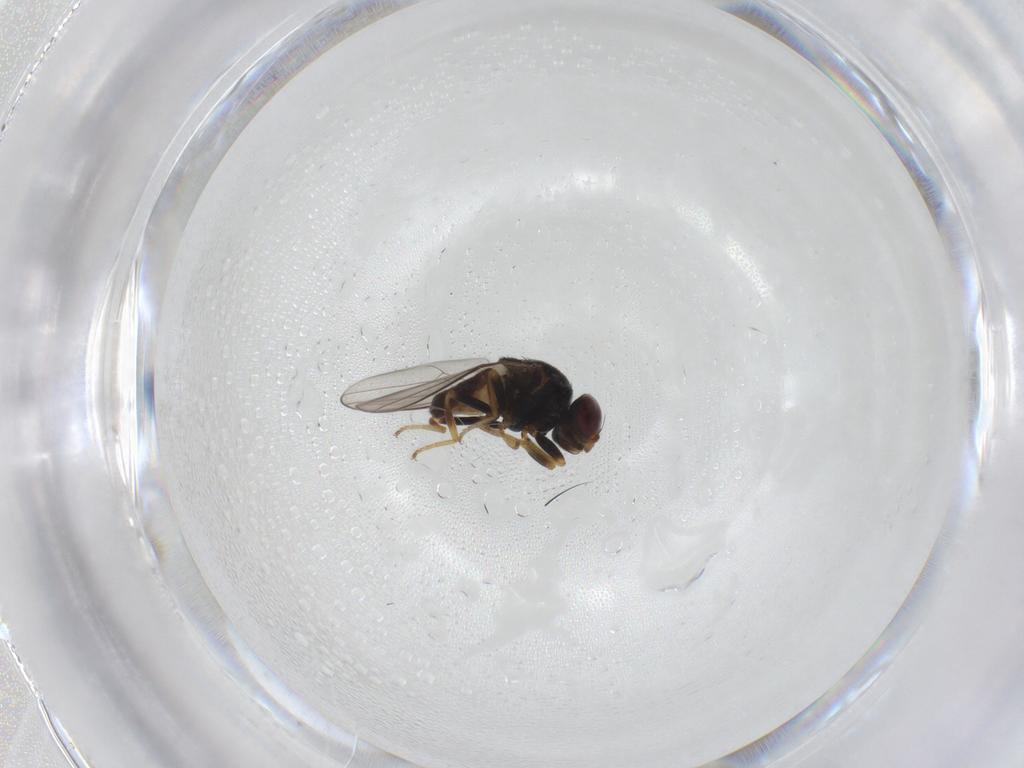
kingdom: Animalia
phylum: Arthropoda
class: Insecta
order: Diptera
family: Chloropidae
